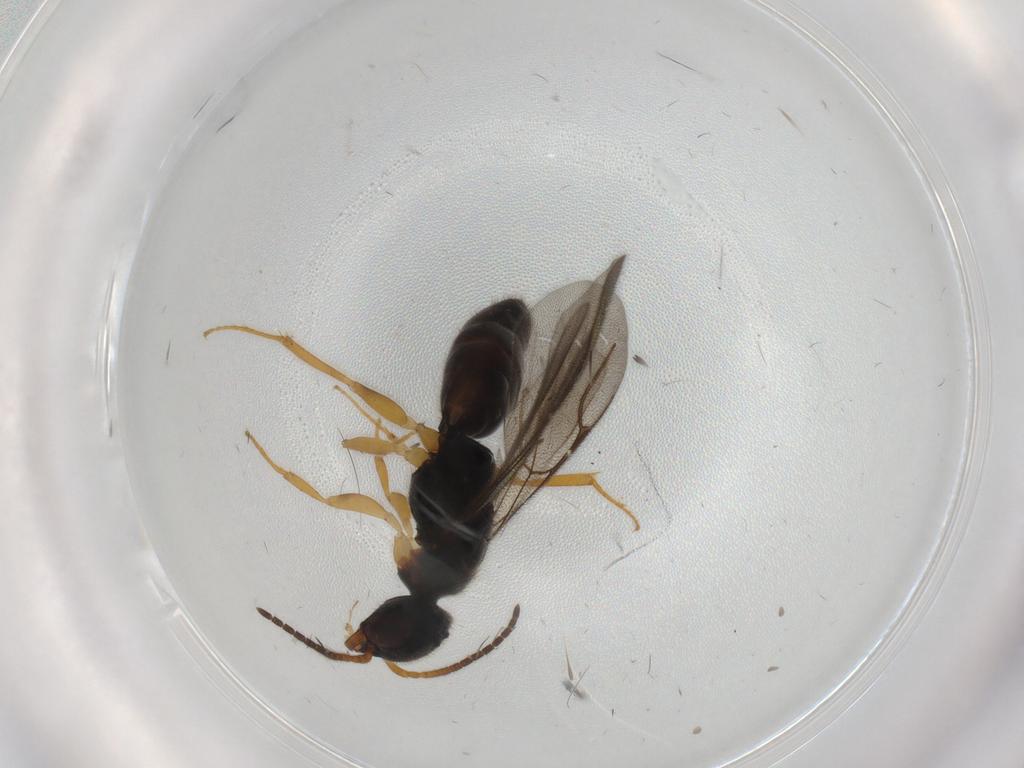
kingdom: Animalia
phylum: Arthropoda
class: Insecta
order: Hymenoptera
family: Bethylidae
